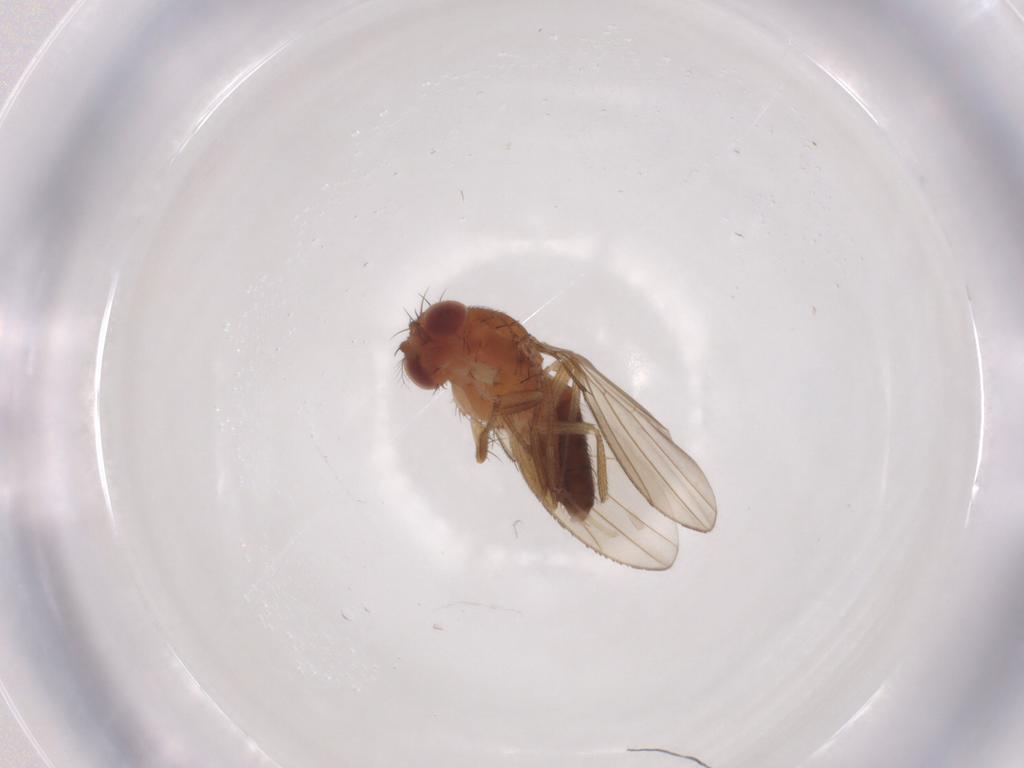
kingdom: Animalia
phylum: Arthropoda
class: Insecta
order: Diptera
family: Drosophilidae
